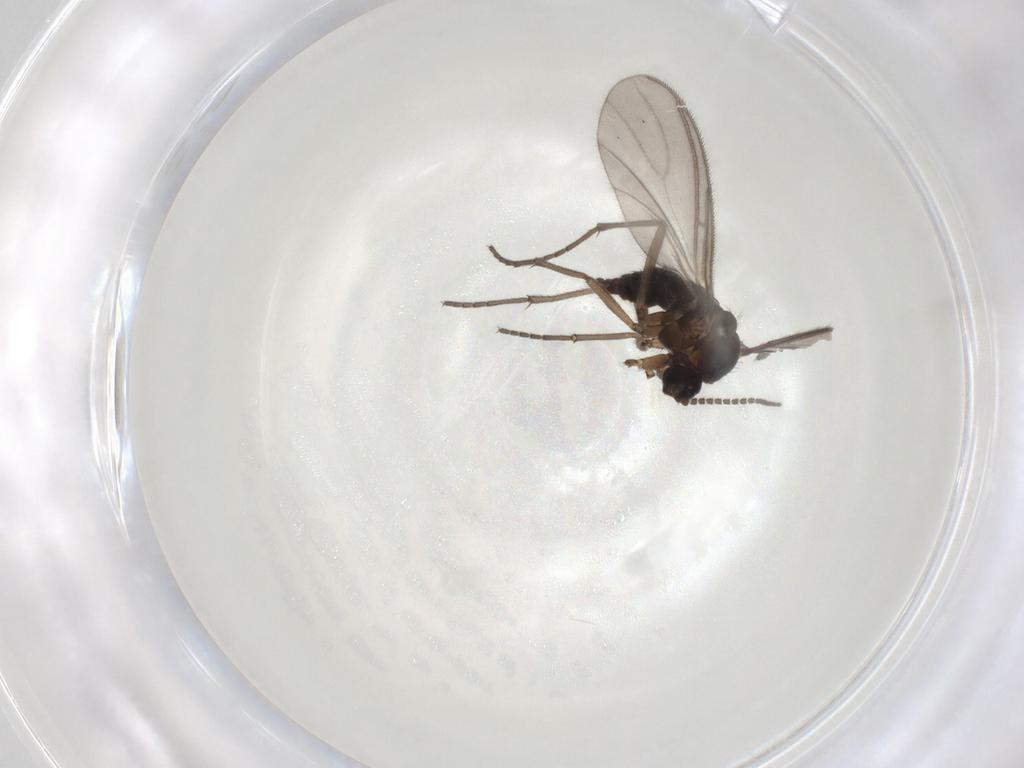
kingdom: Animalia
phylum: Arthropoda
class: Insecta
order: Diptera
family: Sciaridae
